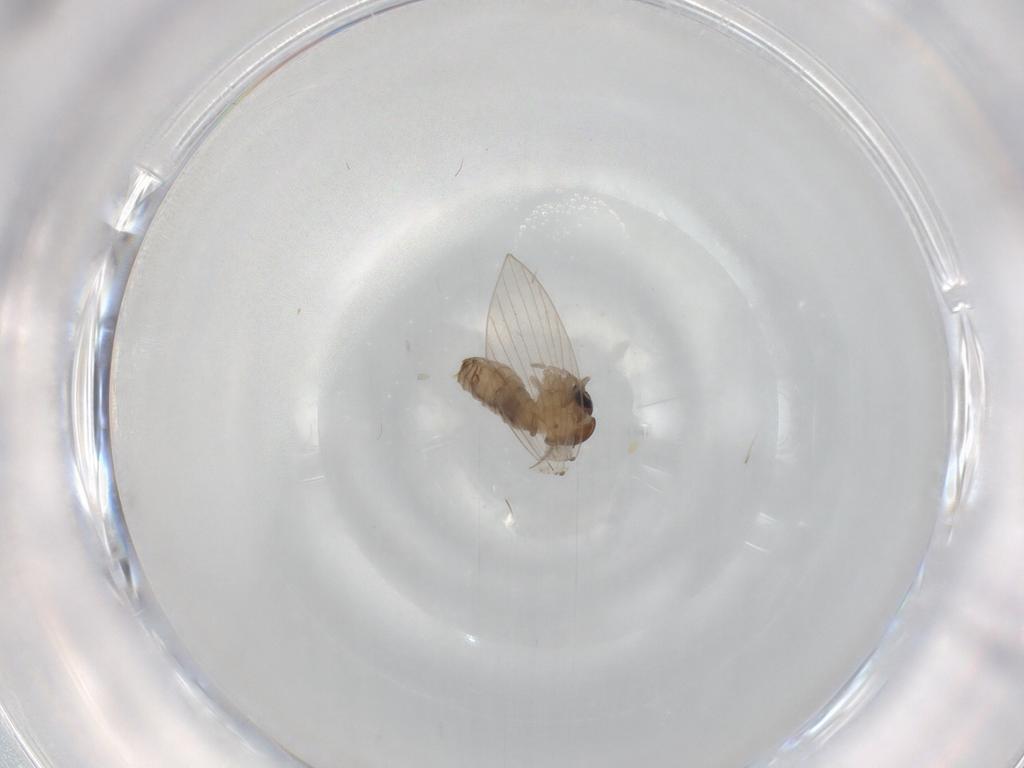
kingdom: Animalia
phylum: Arthropoda
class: Insecta
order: Diptera
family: Psychodidae
